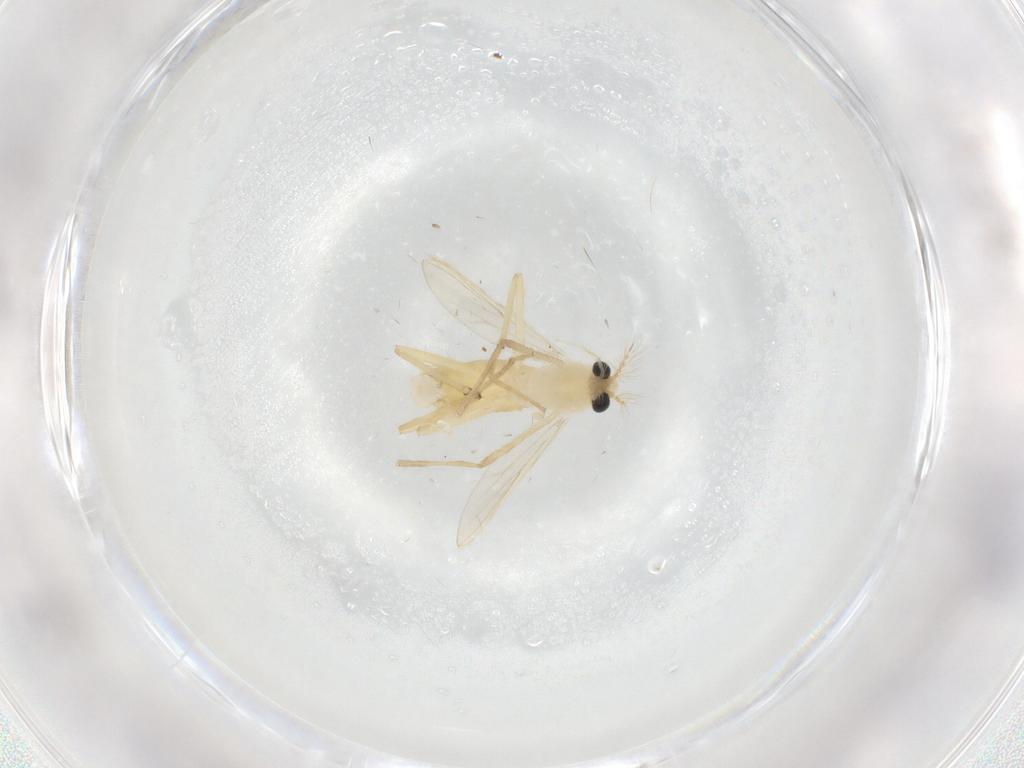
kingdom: Animalia
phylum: Arthropoda
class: Insecta
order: Diptera
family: Chironomidae
